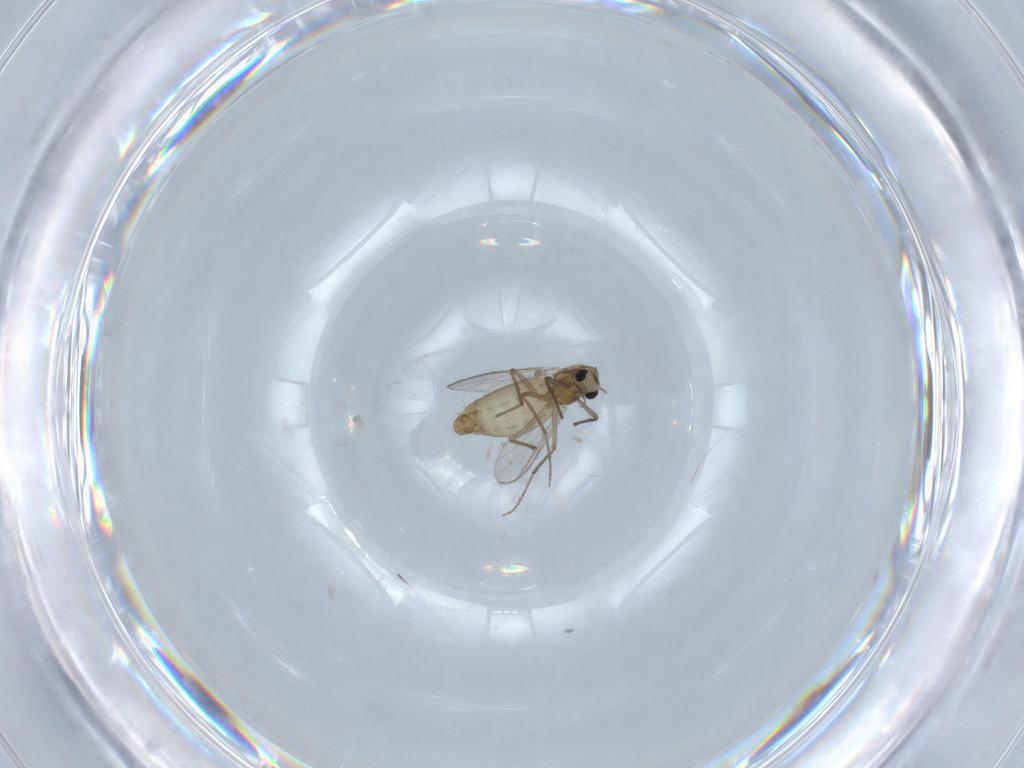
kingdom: Animalia
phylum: Arthropoda
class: Insecta
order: Diptera
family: Chironomidae
